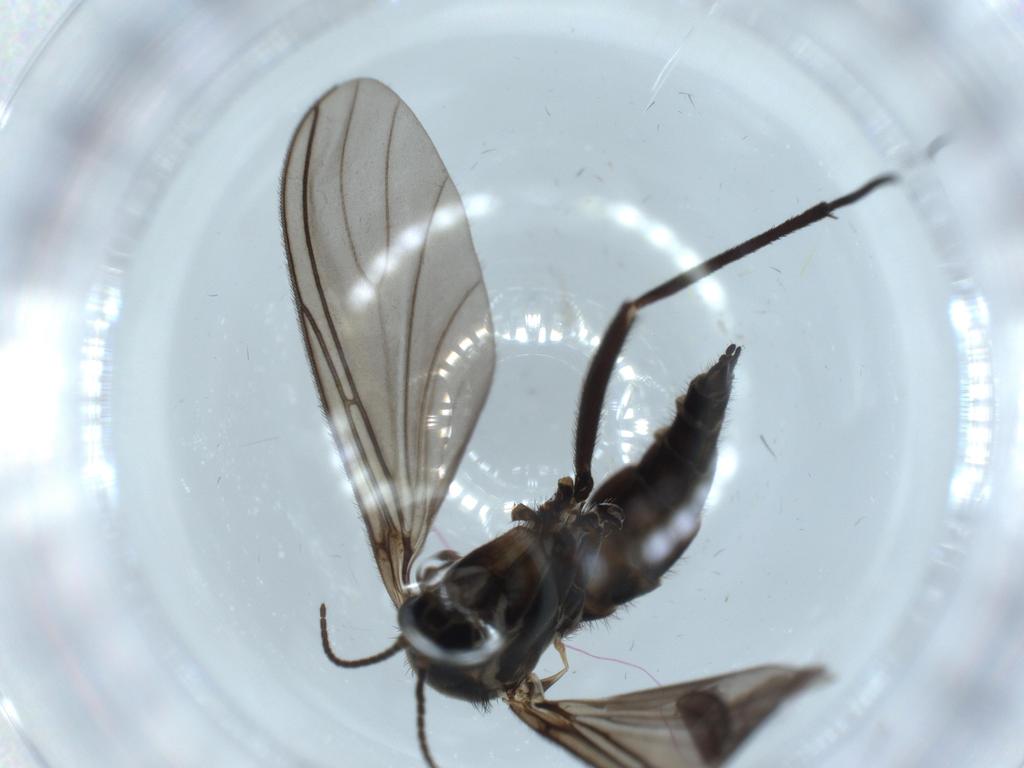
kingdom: Animalia
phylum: Arthropoda
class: Insecta
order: Diptera
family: Sciaridae
